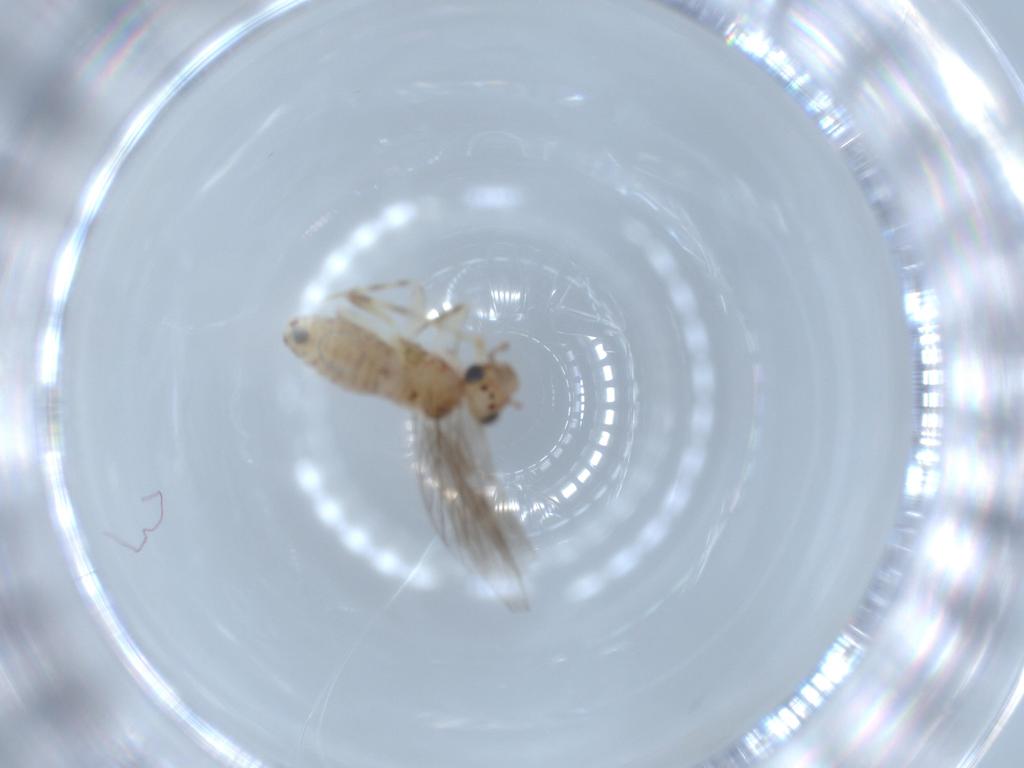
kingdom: Animalia
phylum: Arthropoda
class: Insecta
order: Psocodea
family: Lepidopsocidae
